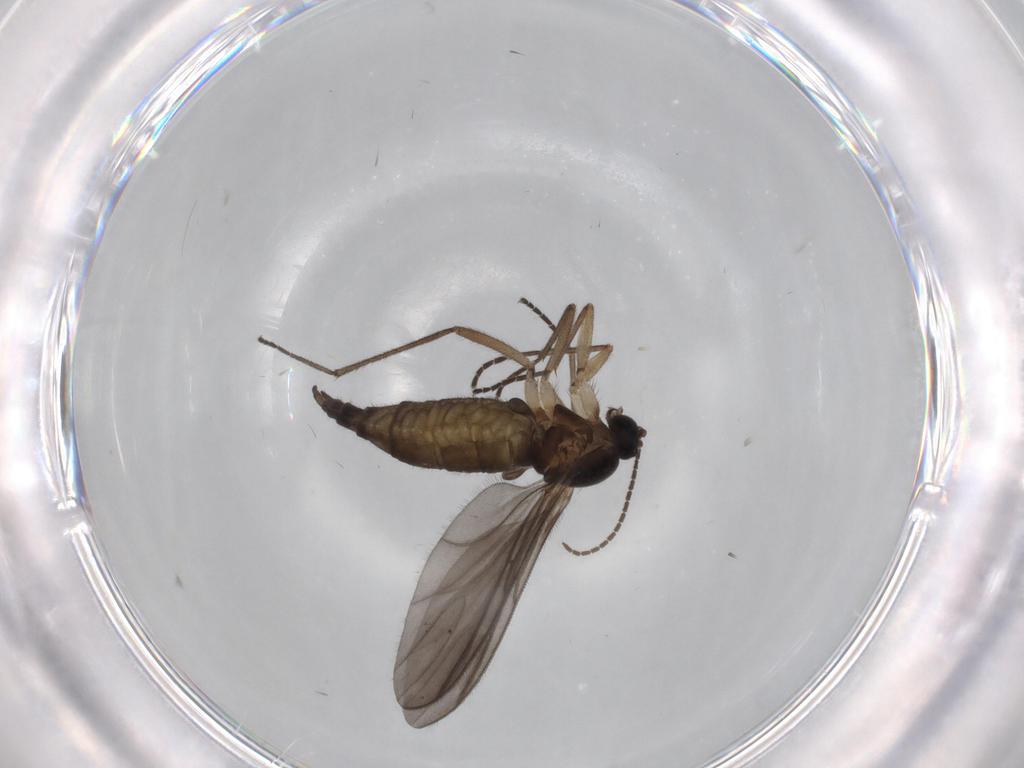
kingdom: Animalia
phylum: Arthropoda
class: Insecta
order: Diptera
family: Sciaridae
